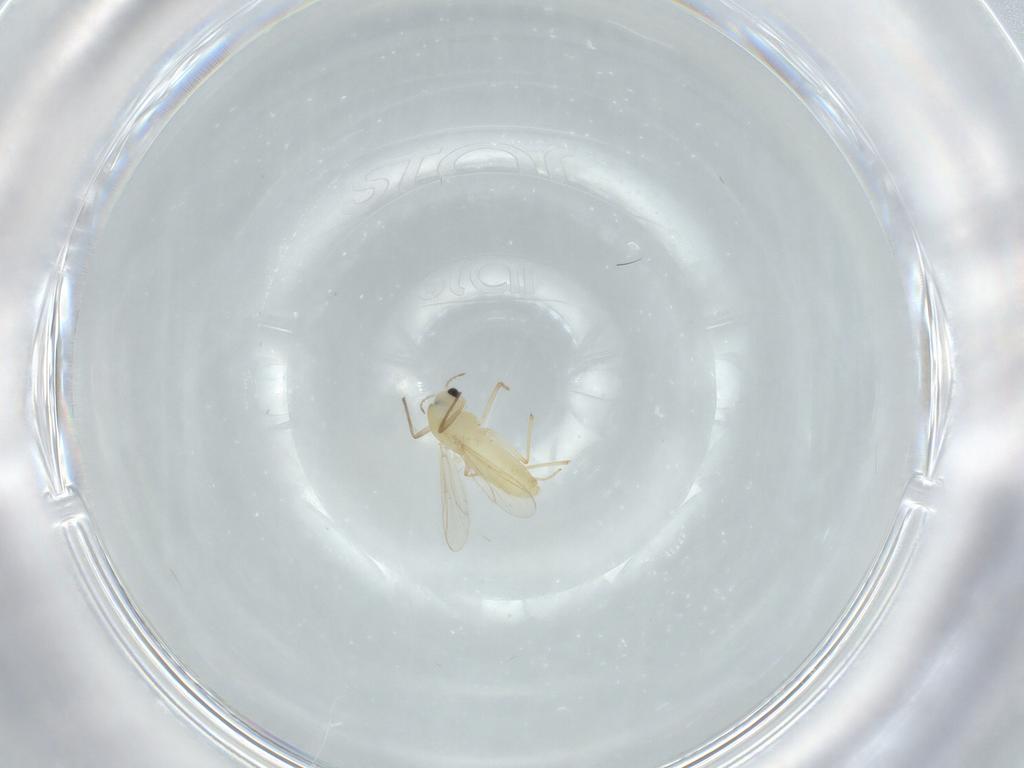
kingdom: Animalia
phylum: Arthropoda
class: Insecta
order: Diptera
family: Chironomidae
